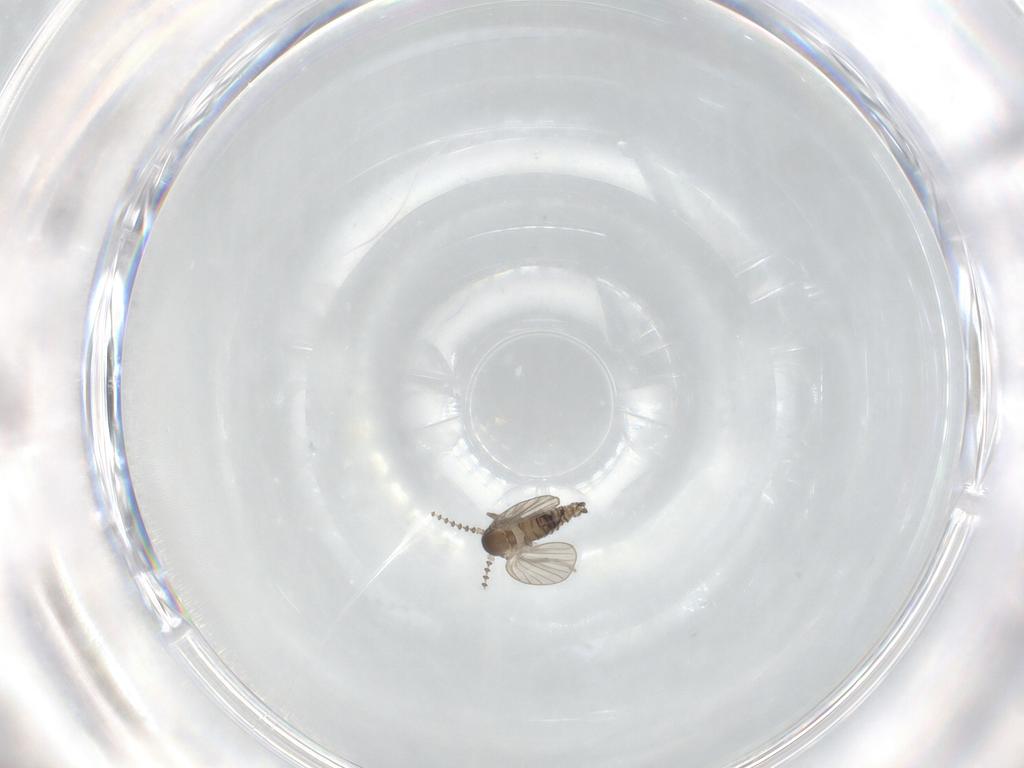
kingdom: Animalia
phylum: Arthropoda
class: Insecta
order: Diptera
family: Psychodidae
